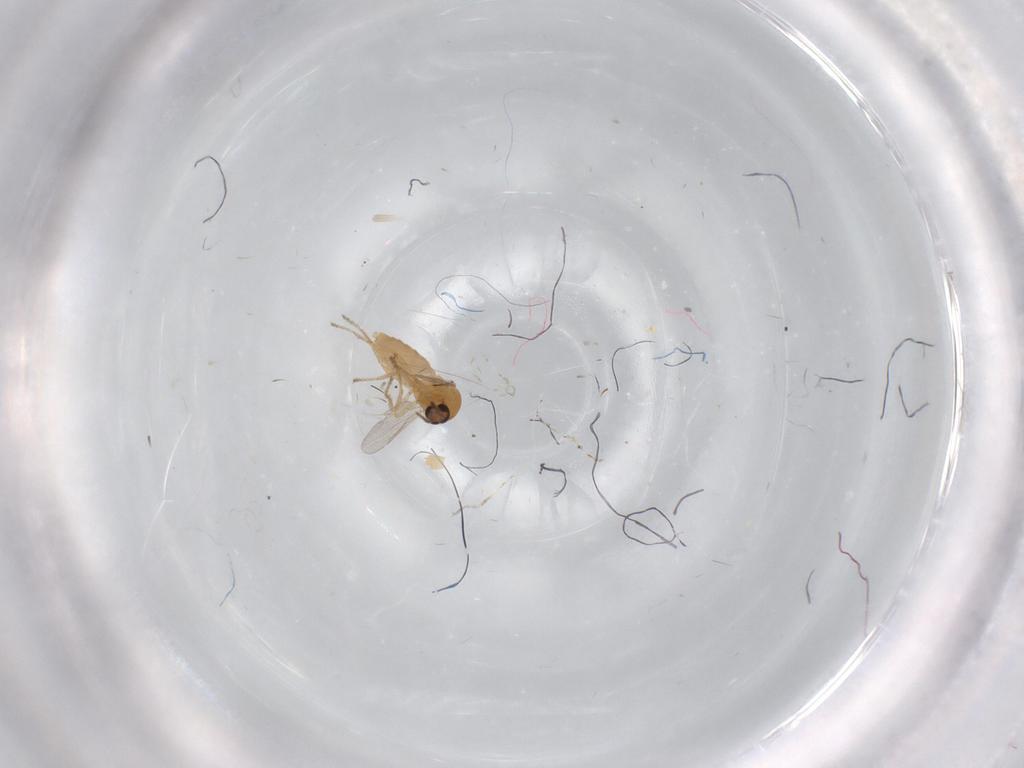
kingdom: Animalia
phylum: Arthropoda
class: Insecta
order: Diptera
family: Ceratopogonidae
